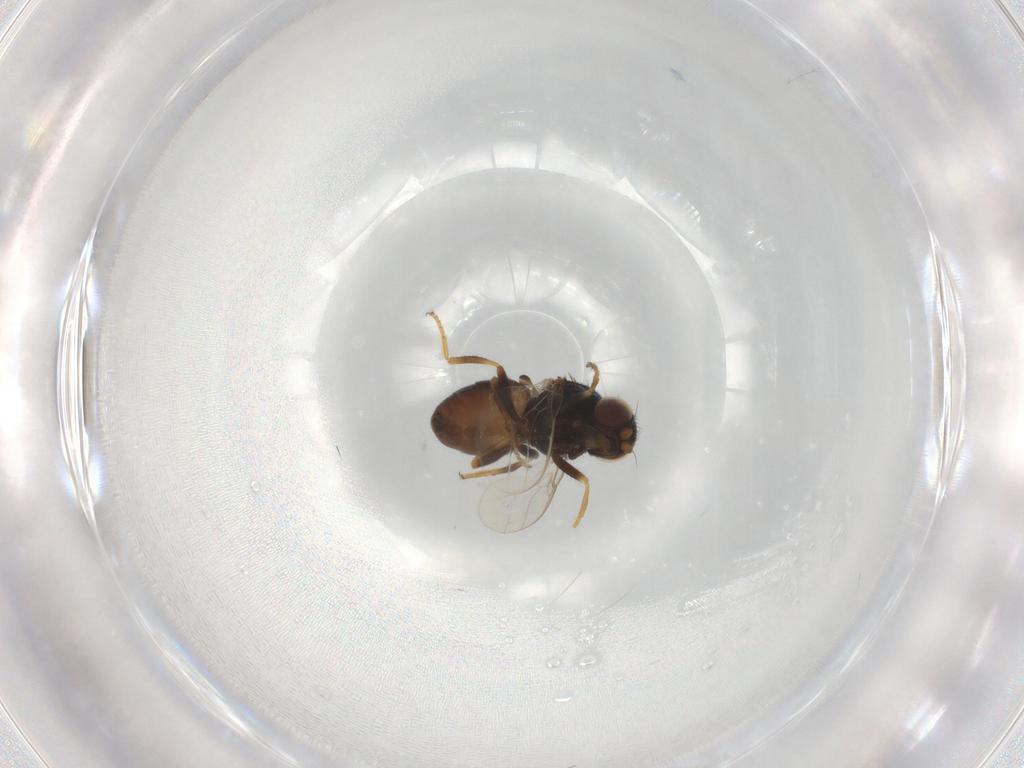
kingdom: Animalia
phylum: Arthropoda
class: Insecta
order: Diptera
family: Chloropidae
